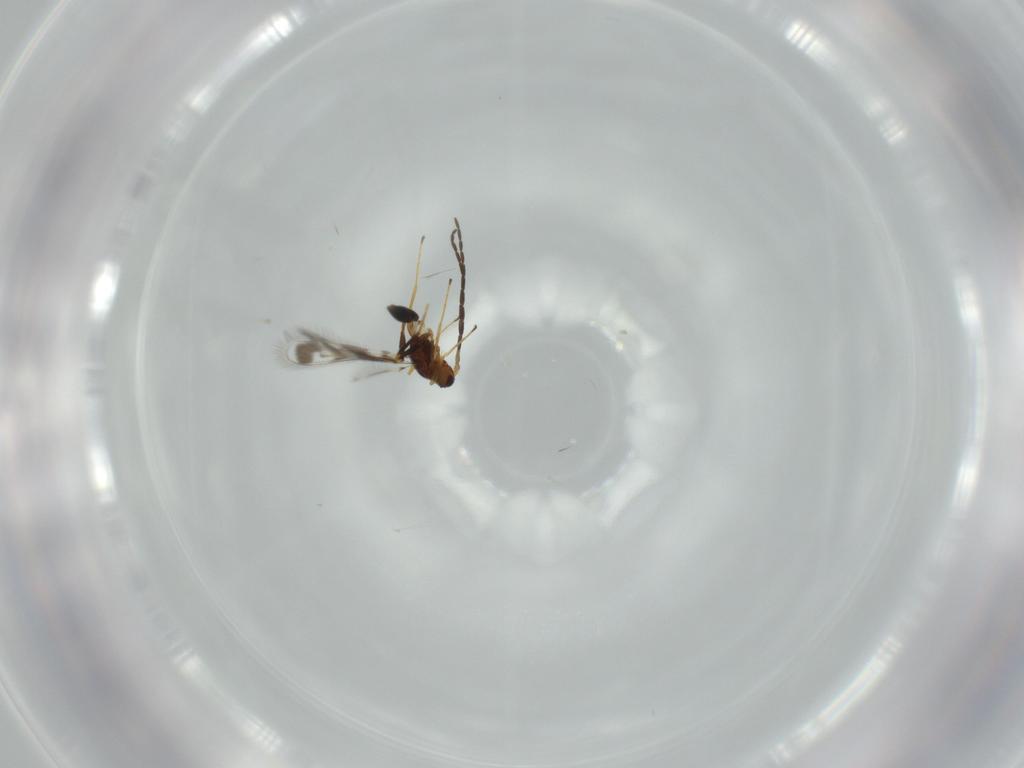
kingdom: Animalia
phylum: Arthropoda
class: Insecta
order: Hymenoptera
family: Mymaridae
